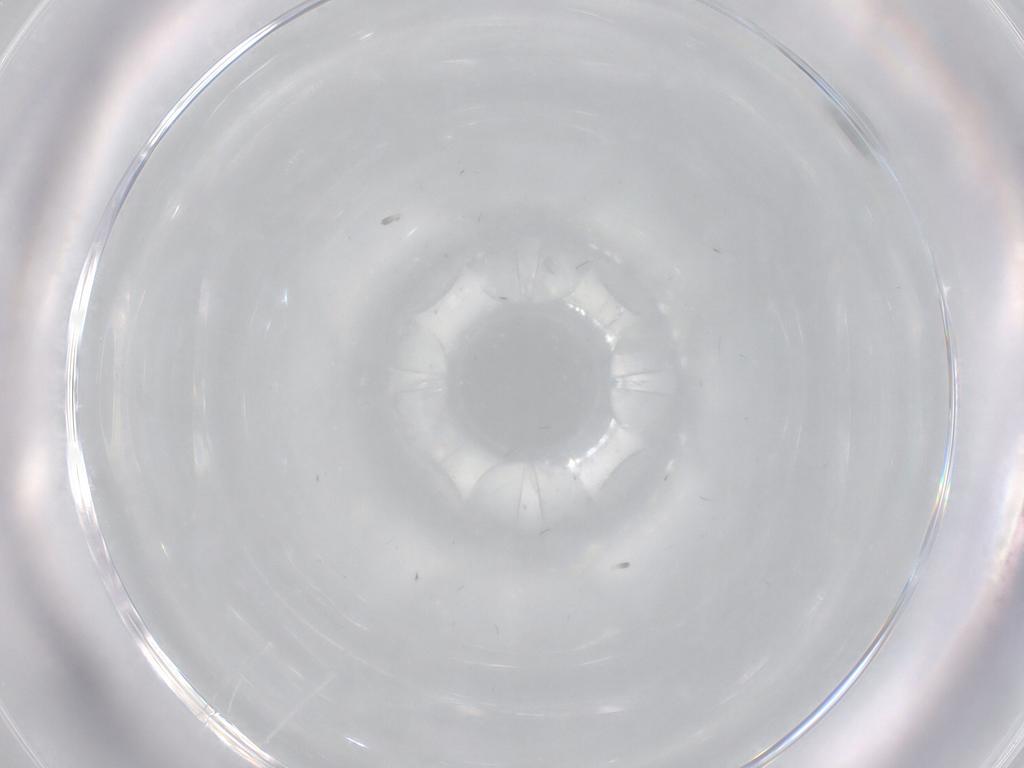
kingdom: Animalia
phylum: Arthropoda
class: Insecta
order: Diptera
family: Cecidomyiidae
